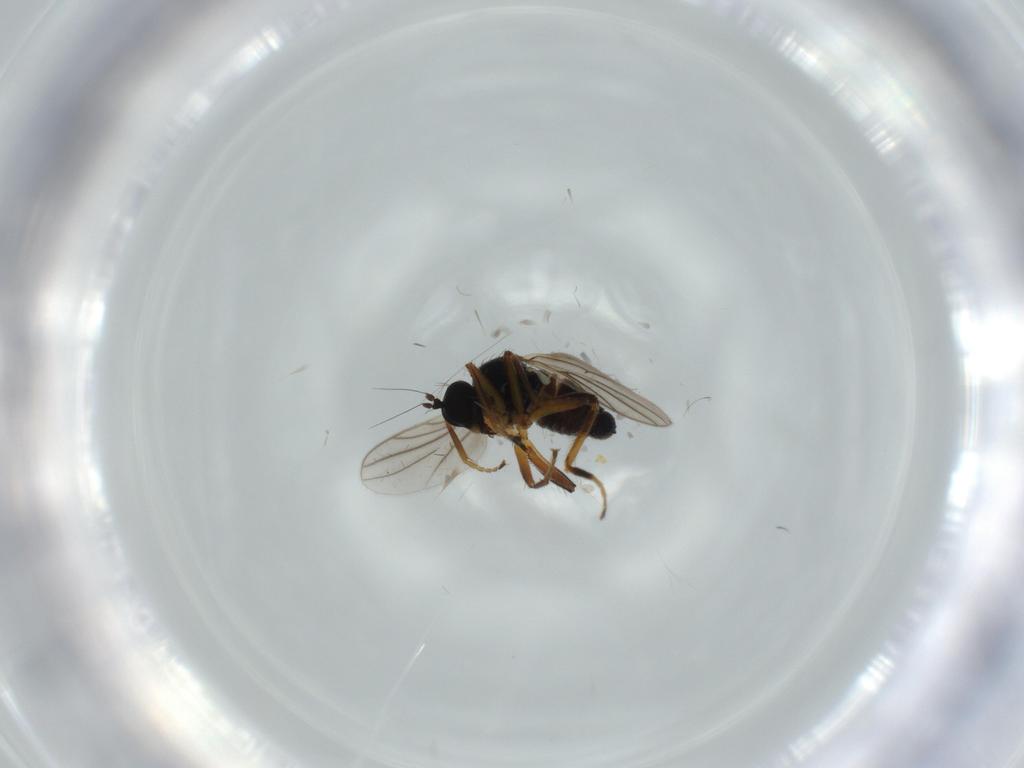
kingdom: Animalia
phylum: Arthropoda
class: Insecta
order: Diptera
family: Hybotidae
